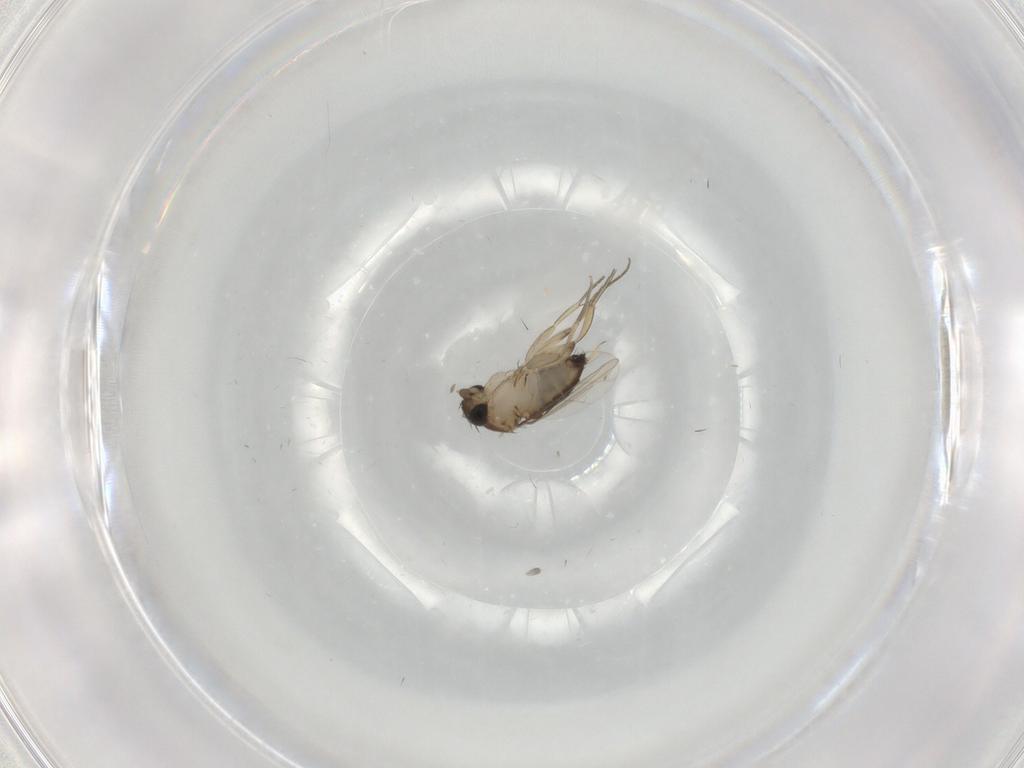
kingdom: Animalia
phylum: Arthropoda
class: Insecta
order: Diptera
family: Phoridae
